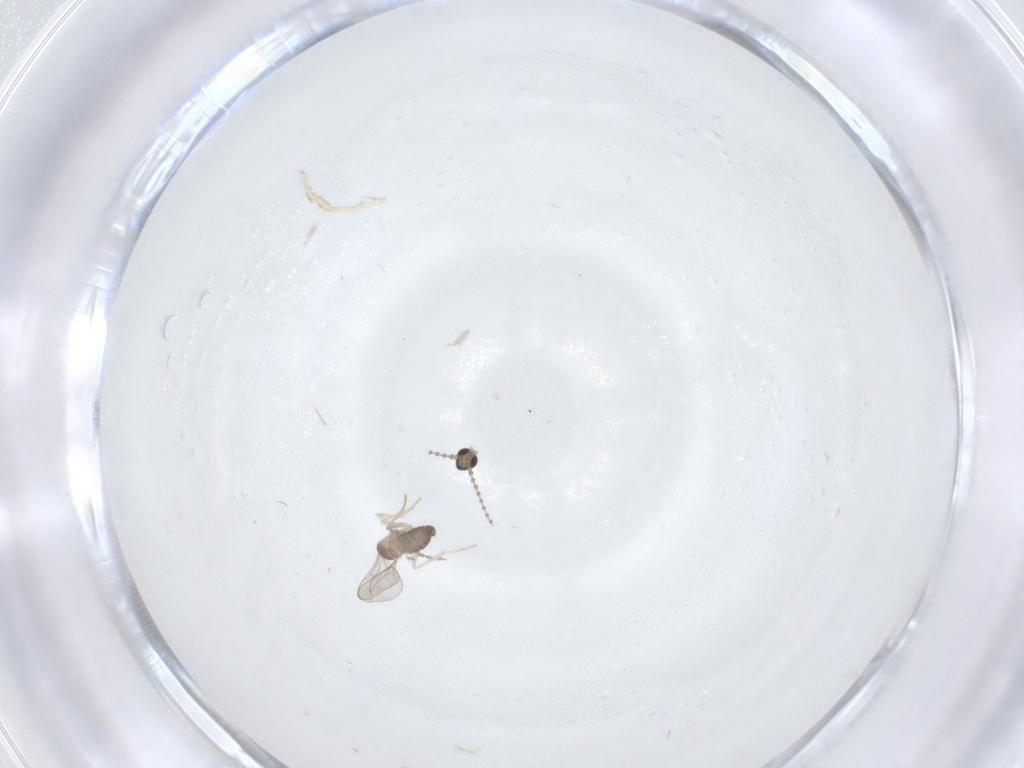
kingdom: Animalia
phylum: Arthropoda
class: Insecta
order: Diptera
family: Cecidomyiidae
